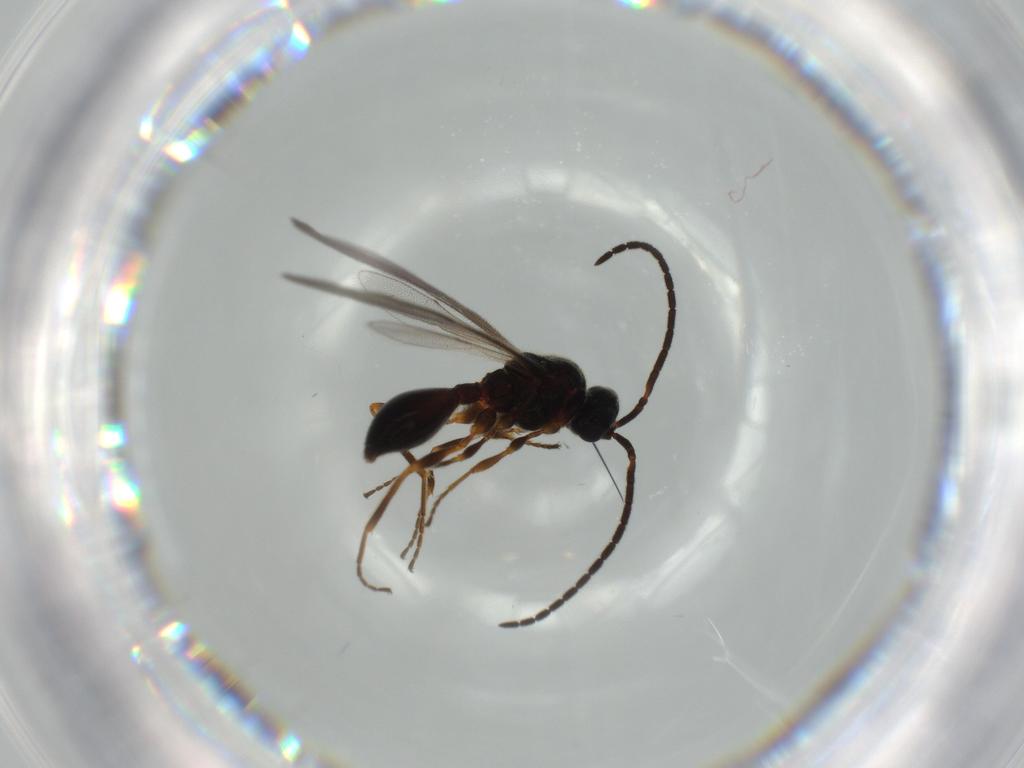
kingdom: Animalia
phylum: Arthropoda
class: Insecta
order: Hymenoptera
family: Diapriidae
